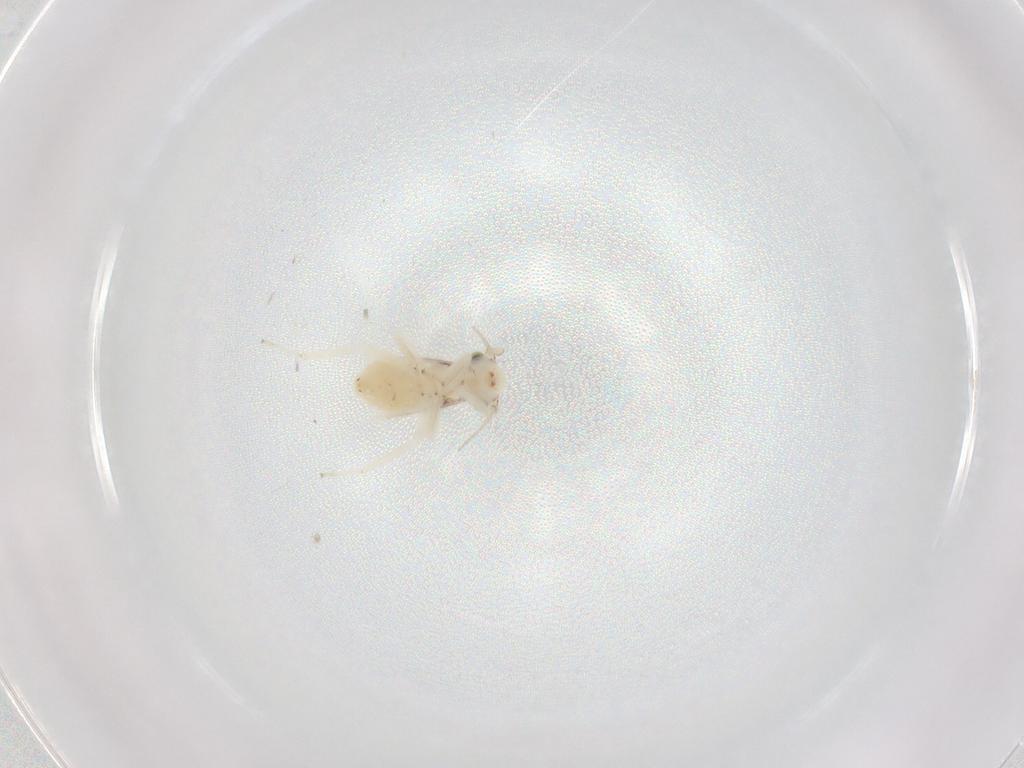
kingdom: Animalia
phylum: Arthropoda
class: Insecta
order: Psocodea
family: Lepidopsocidae
